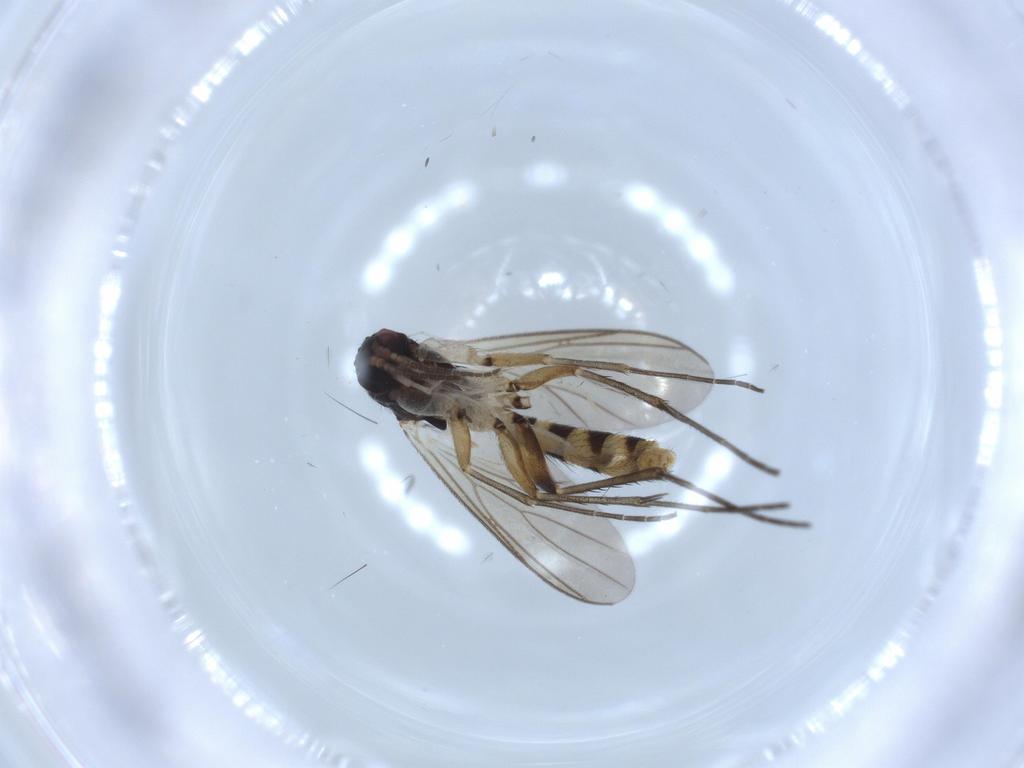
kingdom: Animalia
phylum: Arthropoda
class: Insecta
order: Diptera
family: Mycetophilidae
